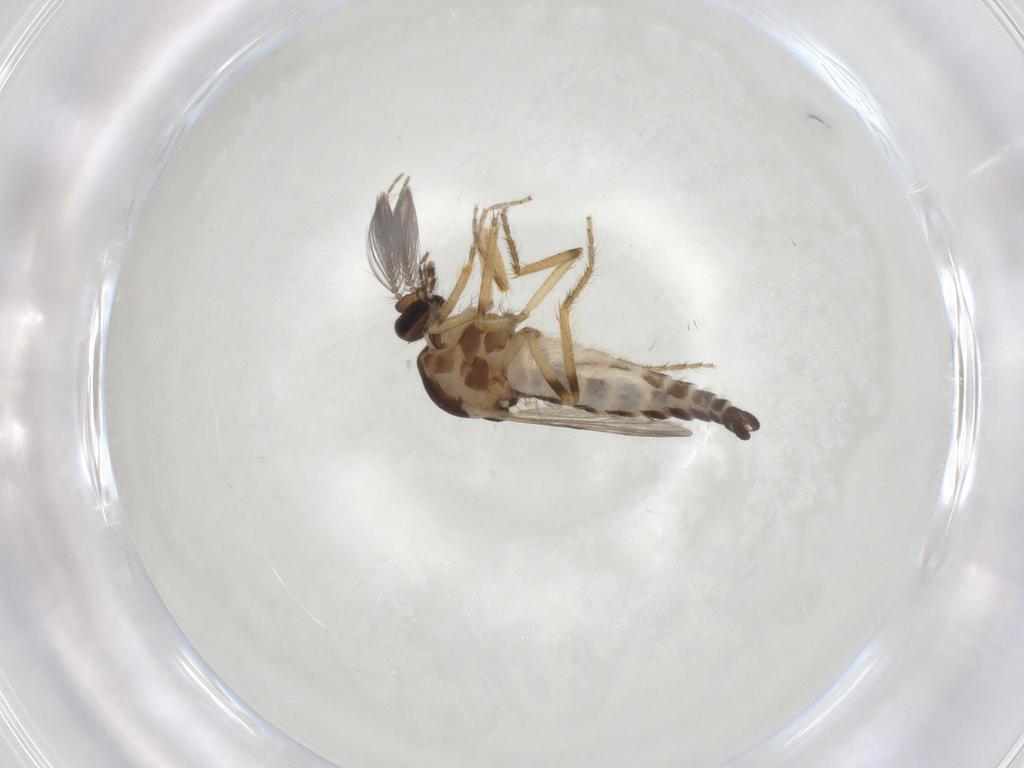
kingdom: Animalia
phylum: Arthropoda
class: Insecta
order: Diptera
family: Ceratopogonidae
